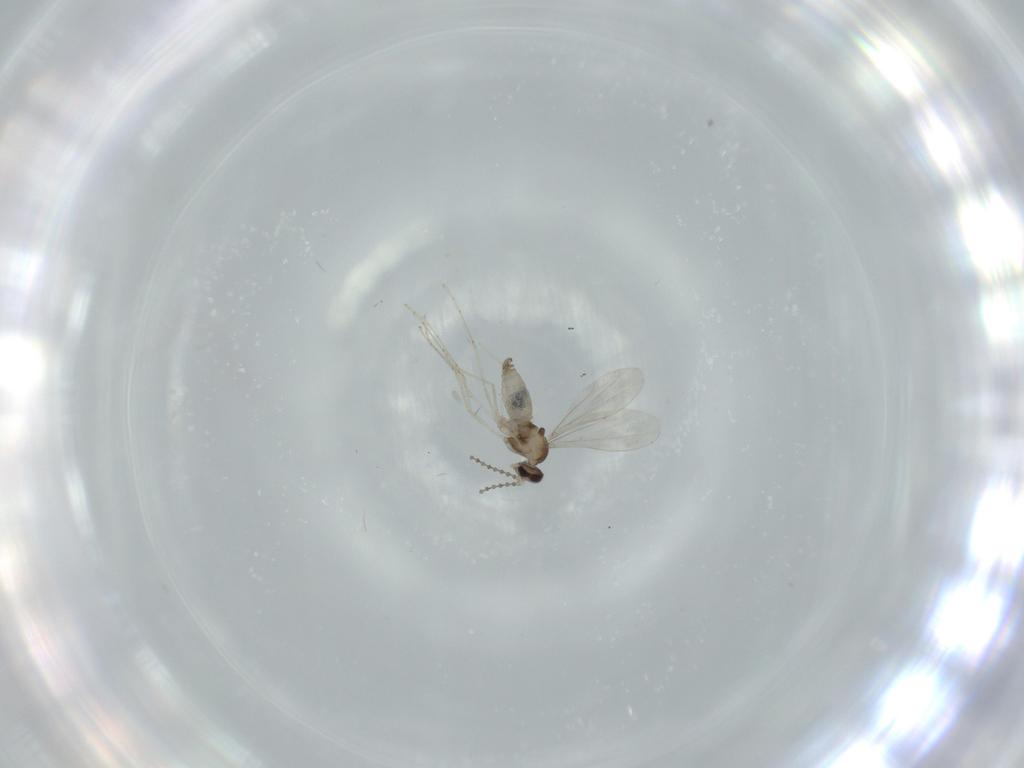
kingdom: Animalia
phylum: Arthropoda
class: Insecta
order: Diptera
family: Cecidomyiidae
